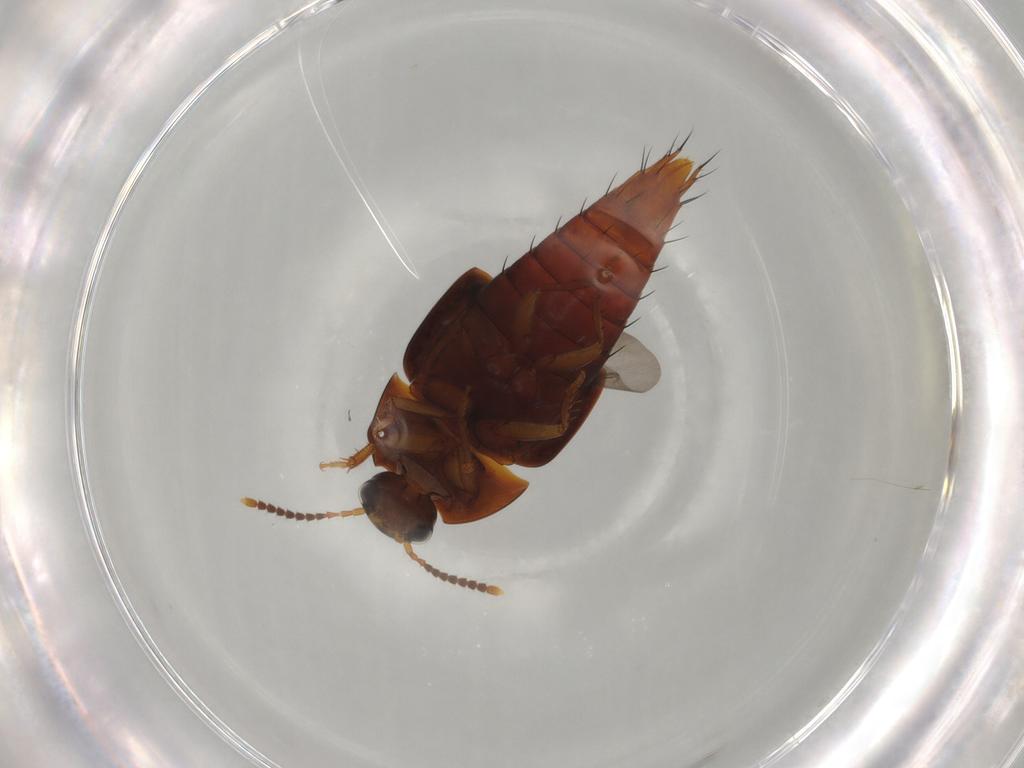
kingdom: Animalia
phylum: Arthropoda
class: Insecta
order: Coleoptera
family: Staphylinidae
